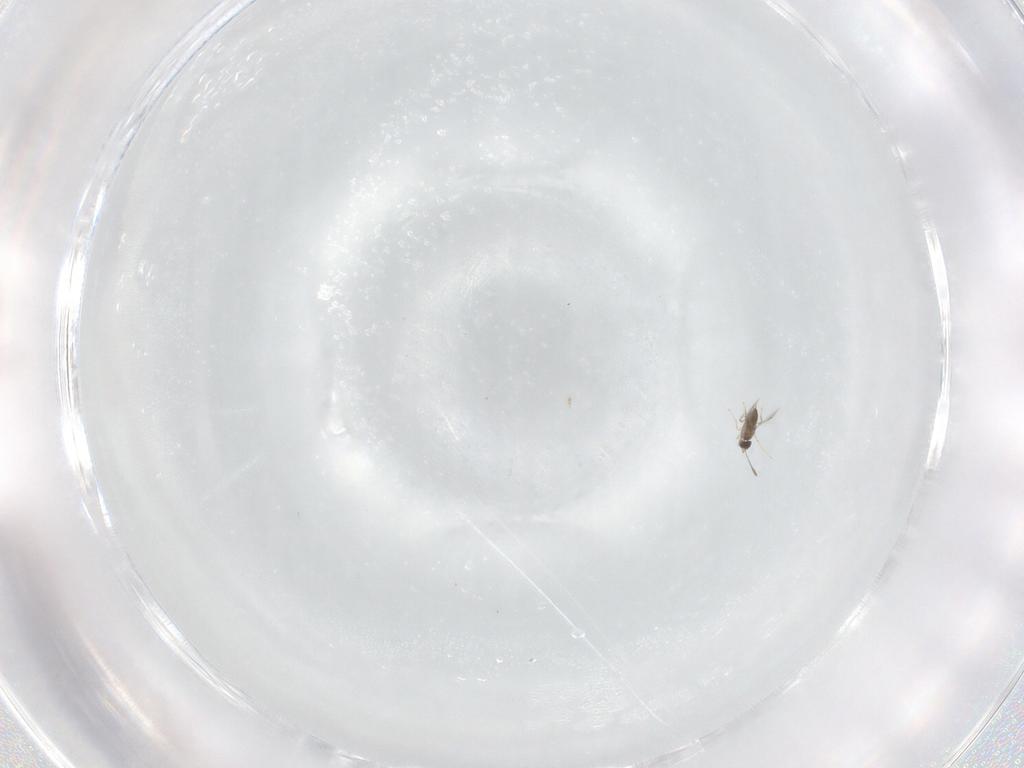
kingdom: Animalia
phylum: Arthropoda
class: Insecta
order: Hymenoptera
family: Mymaridae
